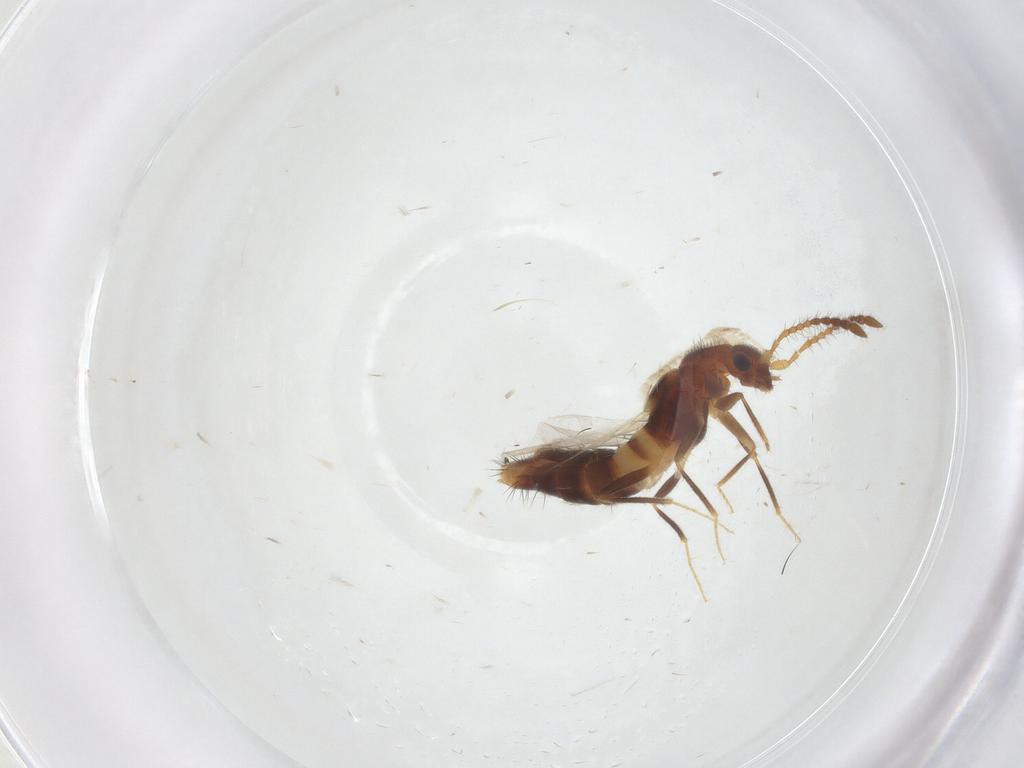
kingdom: Animalia
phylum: Arthropoda
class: Insecta
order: Coleoptera
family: Staphylinidae
